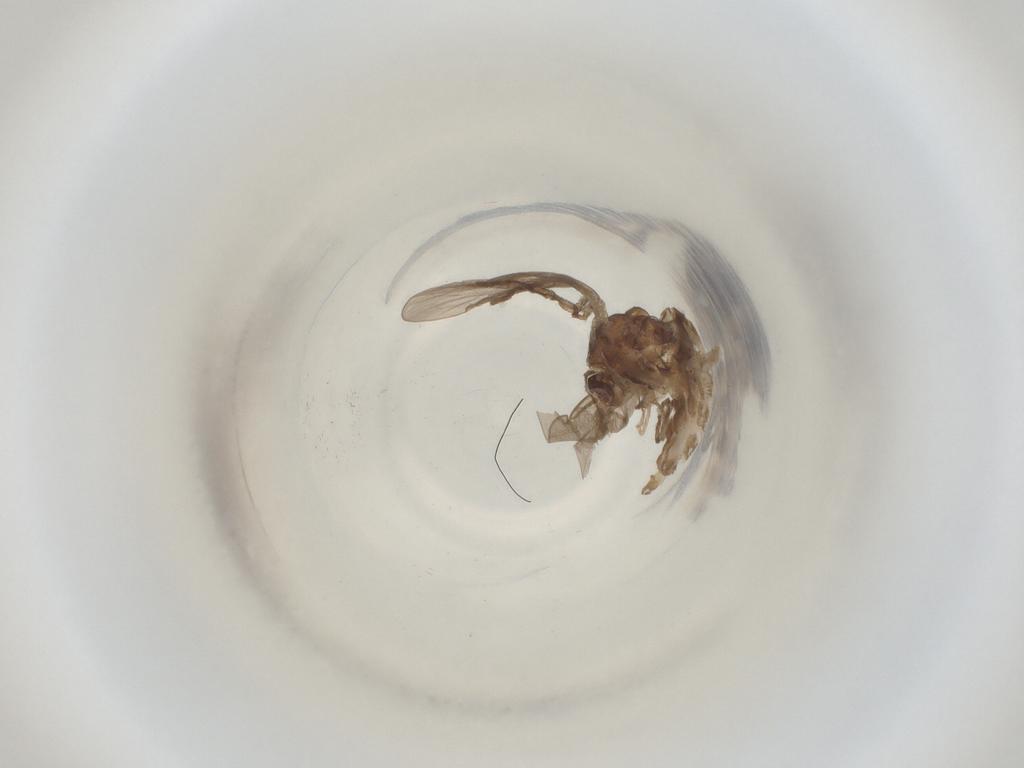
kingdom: Animalia
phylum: Arthropoda
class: Insecta
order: Diptera
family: Cecidomyiidae
